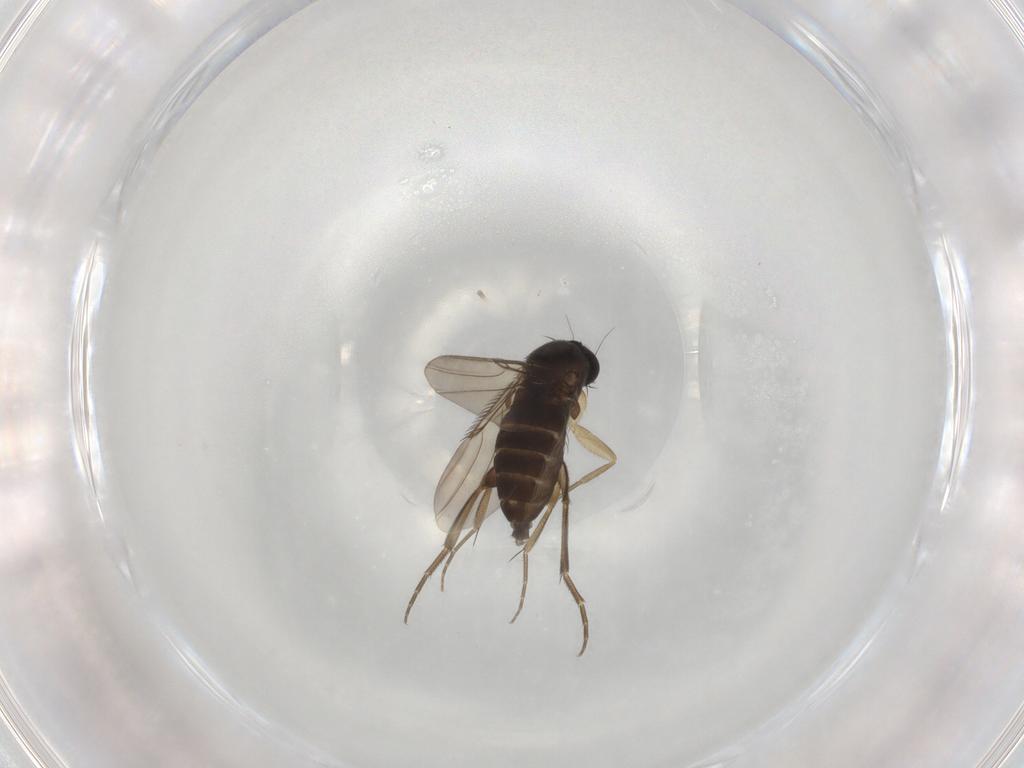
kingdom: Animalia
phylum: Arthropoda
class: Insecta
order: Diptera
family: Phoridae
